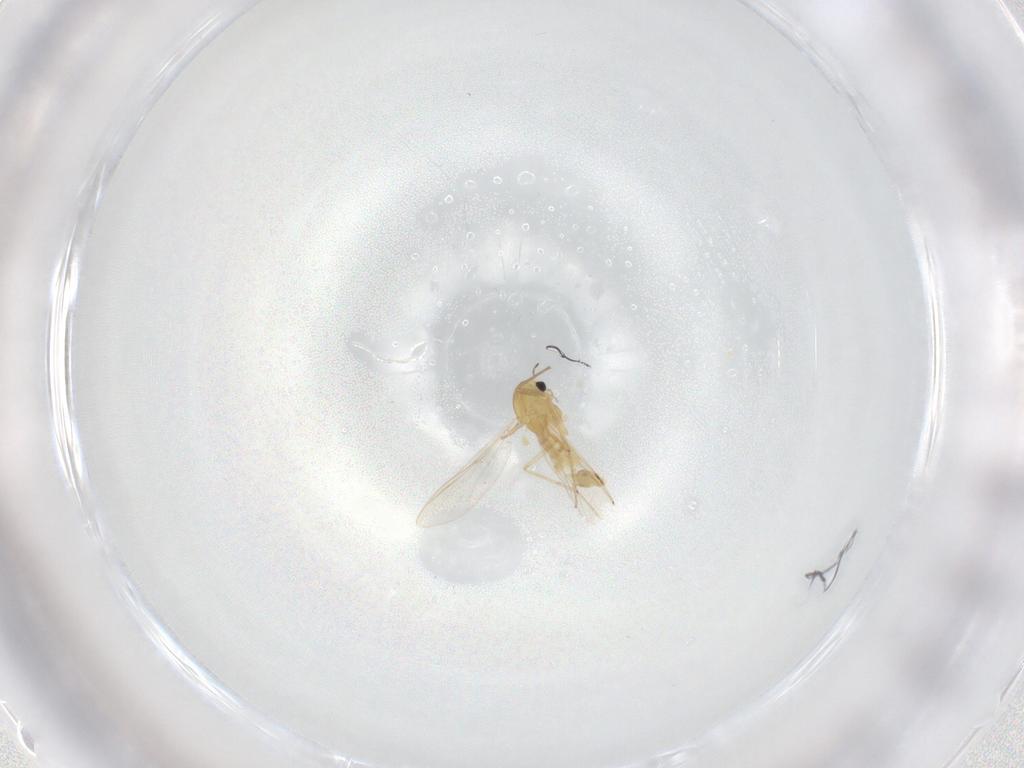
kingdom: Animalia
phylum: Arthropoda
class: Insecta
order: Diptera
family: Chironomidae
